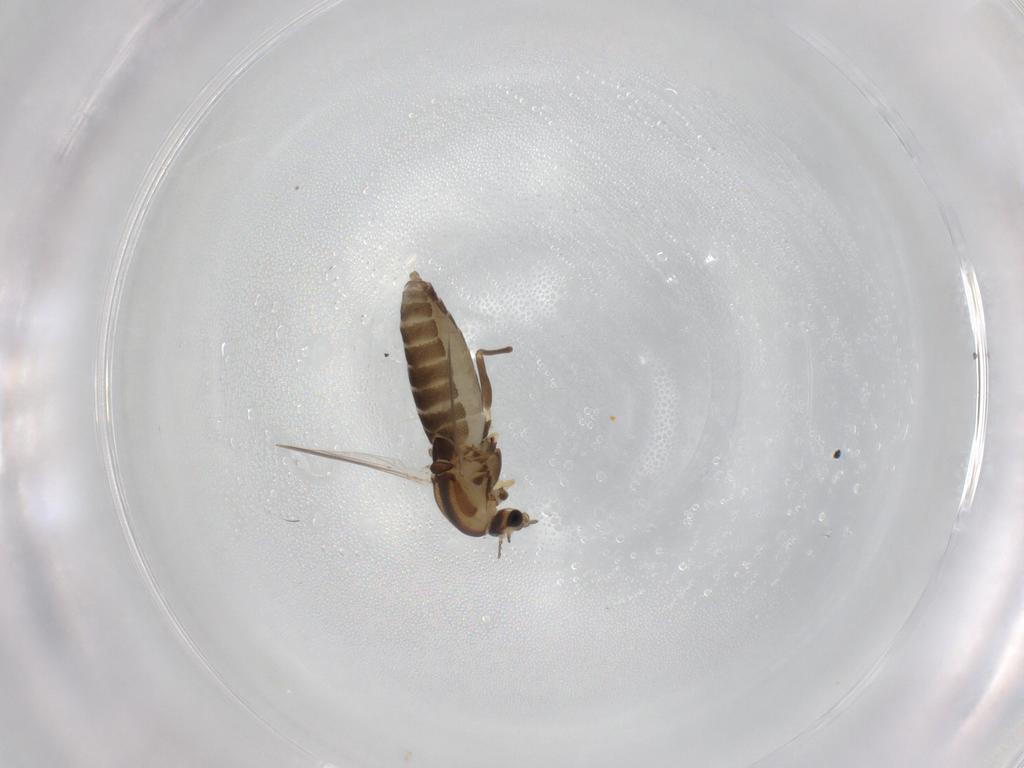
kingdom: Animalia
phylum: Arthropoda
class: Insecta
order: Diptera
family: Chironomidae
